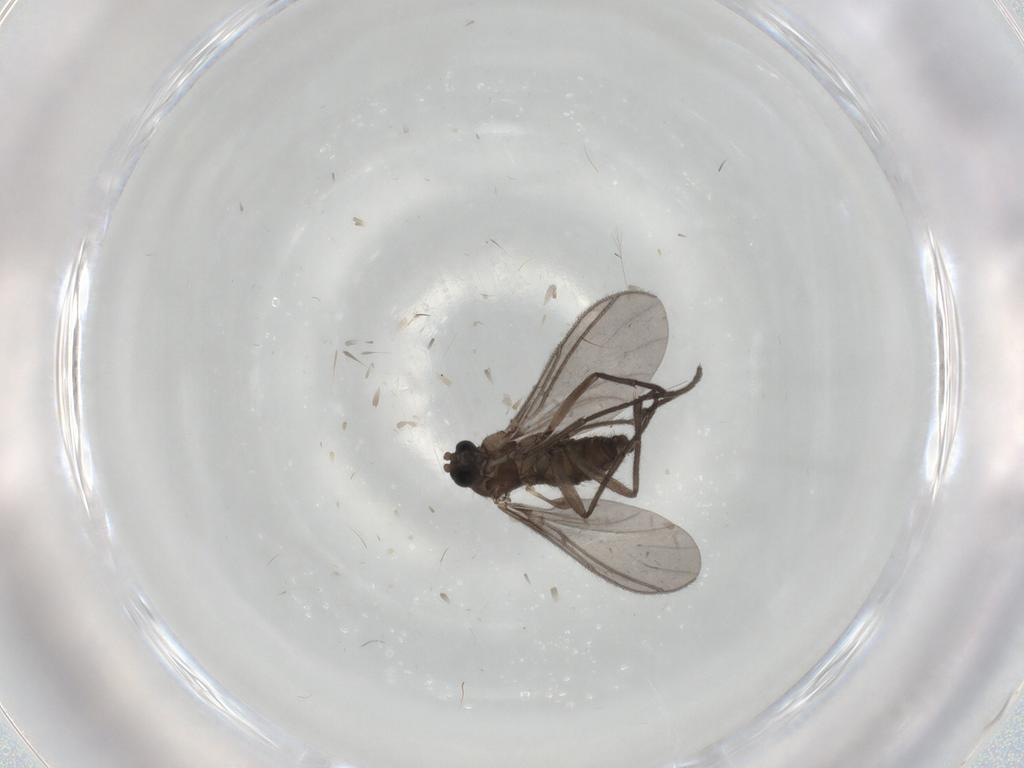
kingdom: Animalia
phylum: Arthropoda
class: Insecta
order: Diptera
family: Sciaridae
